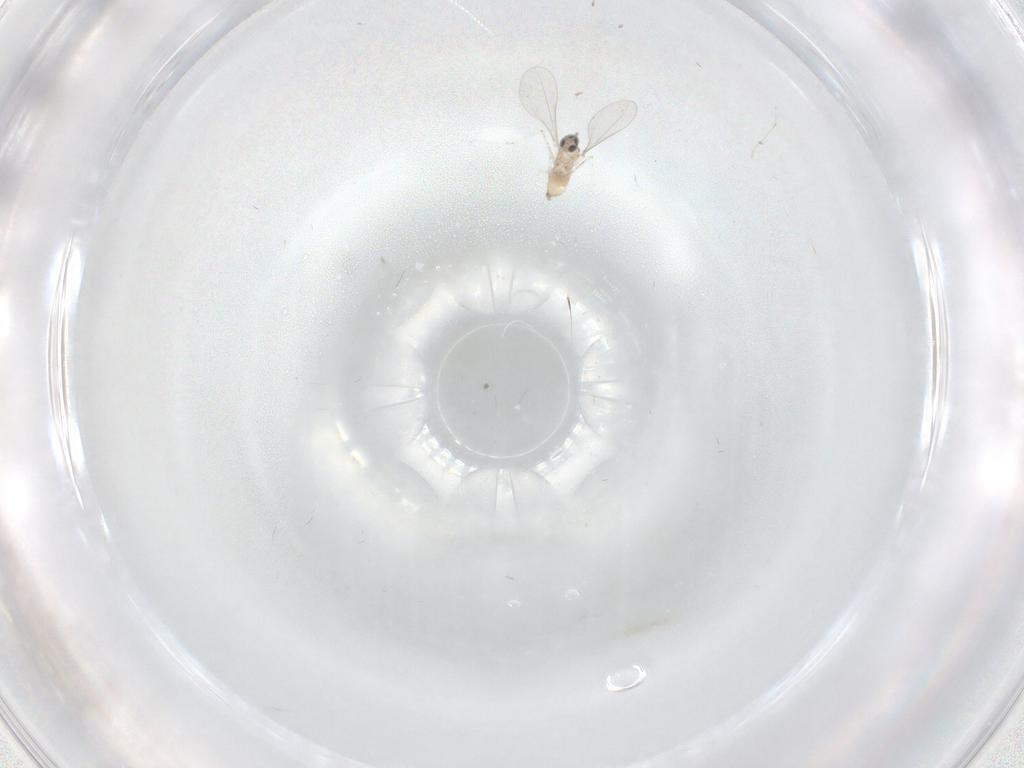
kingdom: Animalia
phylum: Arthropoda
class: Insecta
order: Diptera
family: Cecidomyiidae
